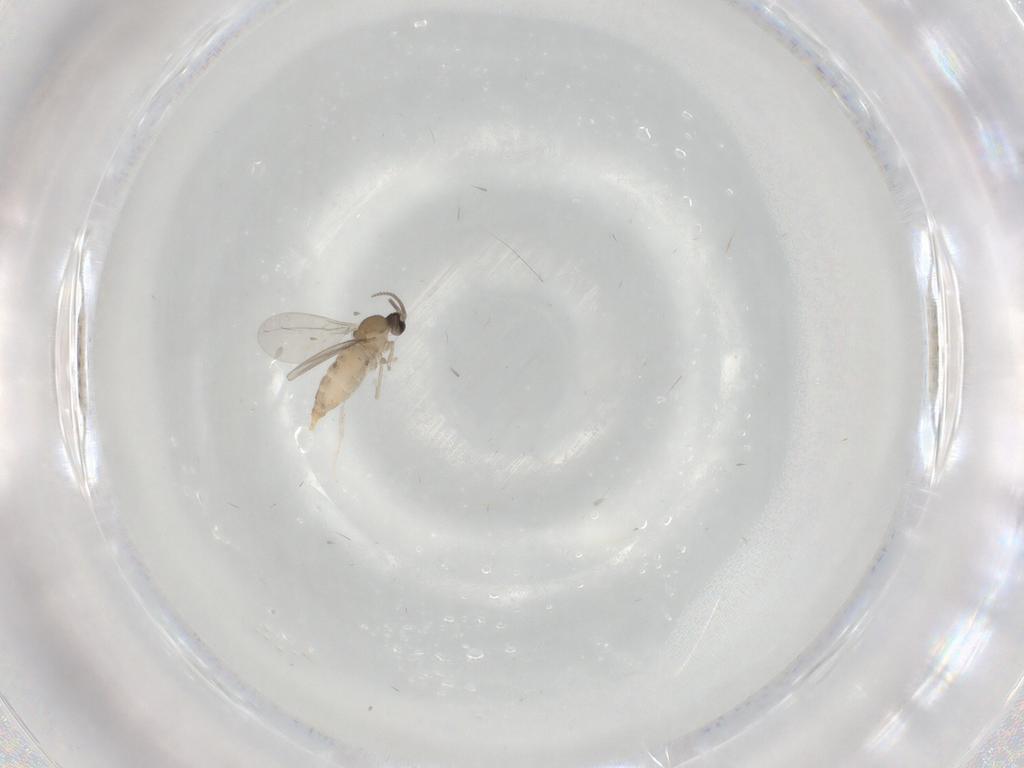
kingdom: Animalia
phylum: Arthropoda
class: Insecta
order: Diptera
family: Cecidomyiidae
